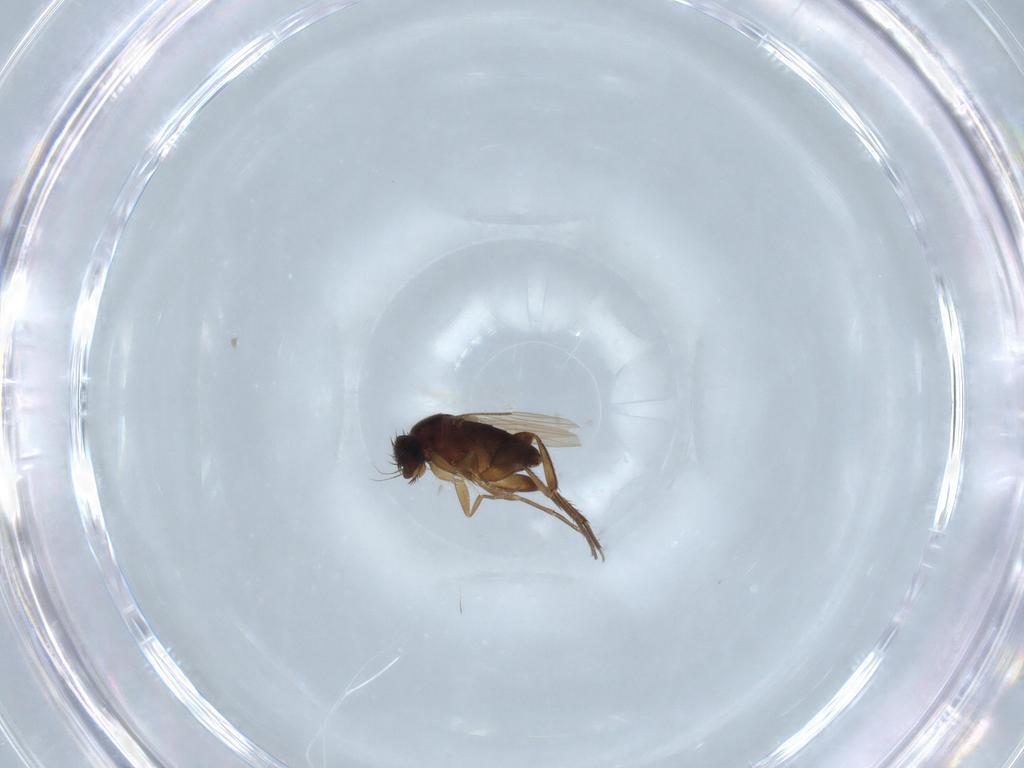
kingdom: Animalia
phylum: Arthropoda
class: Insecta
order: Diptera
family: Phoridae
